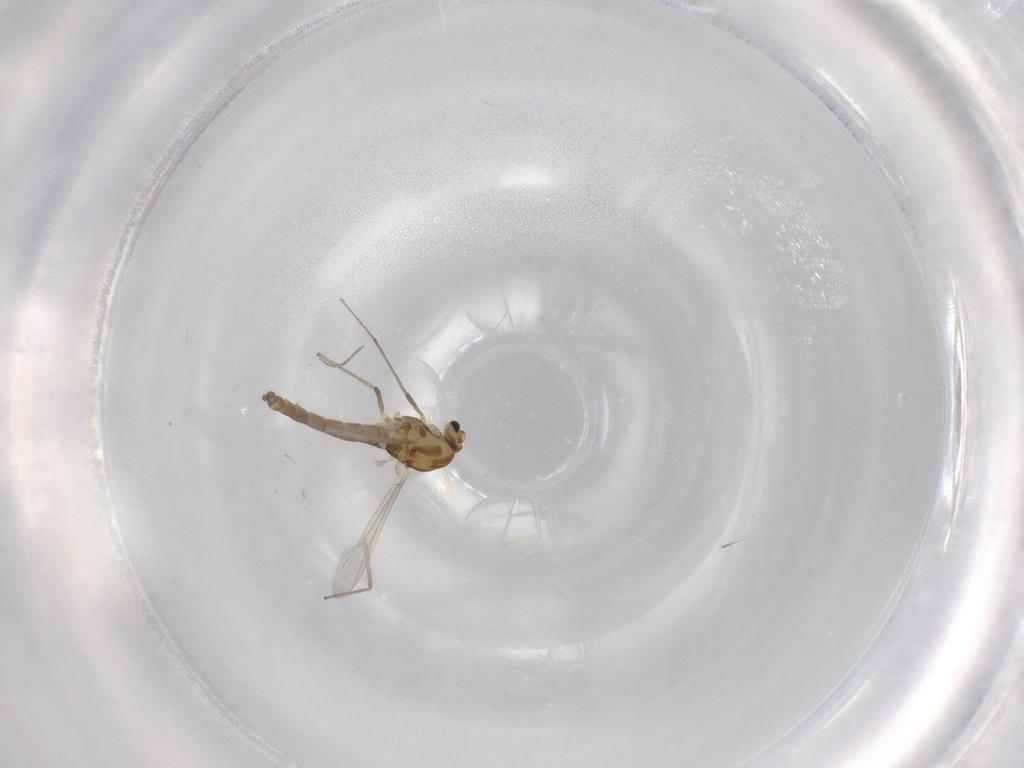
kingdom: Animalia
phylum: Arthropoda
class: Insecta
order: Diptera
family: Chironomidae
